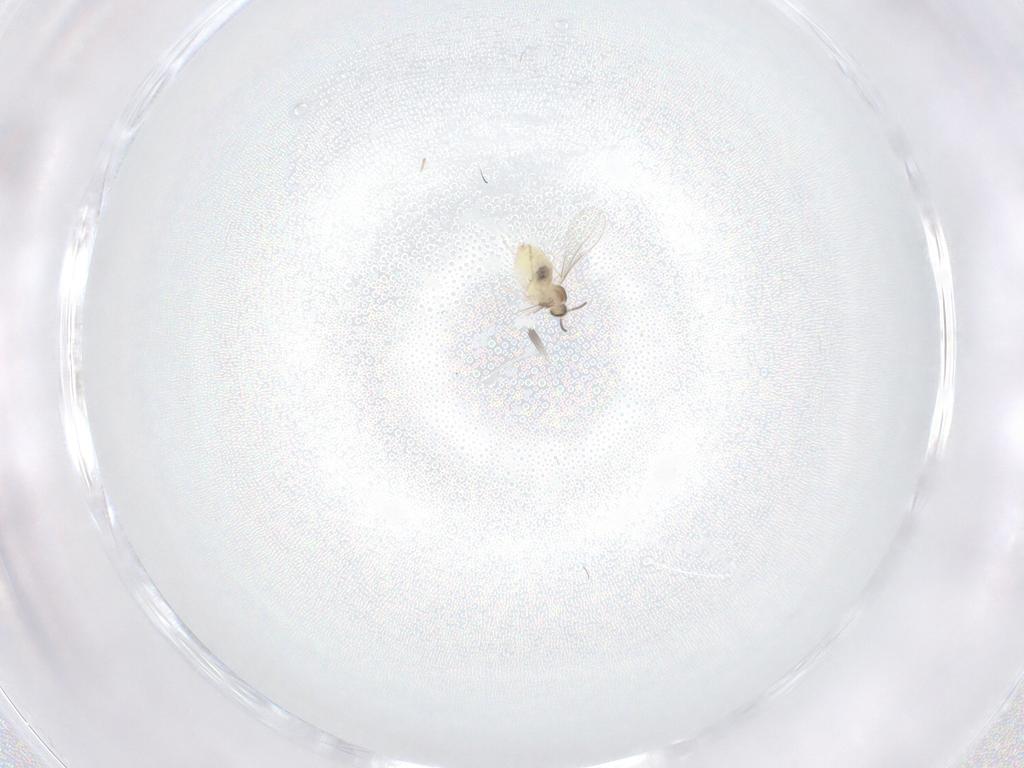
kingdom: Animalia
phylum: Arthropoda
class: Insecta
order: Diptera
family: Cecidomyiidae
